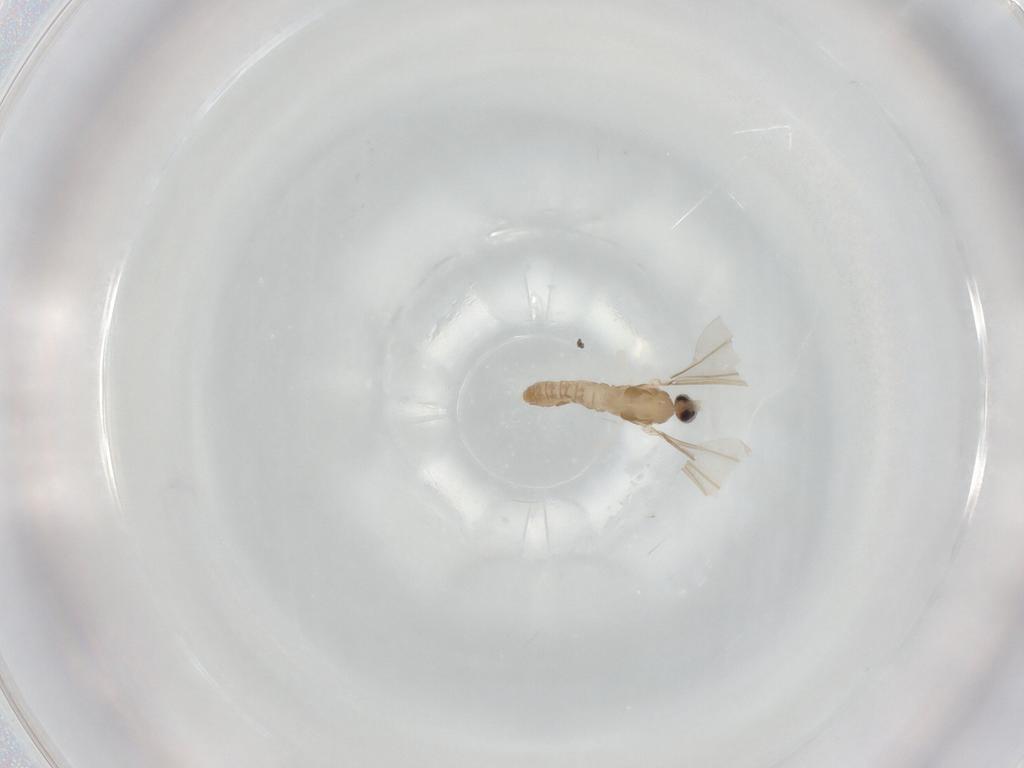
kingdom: Animalia
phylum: Arthropoda
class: Insecta
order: Diptera
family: Cecidomyiidae
